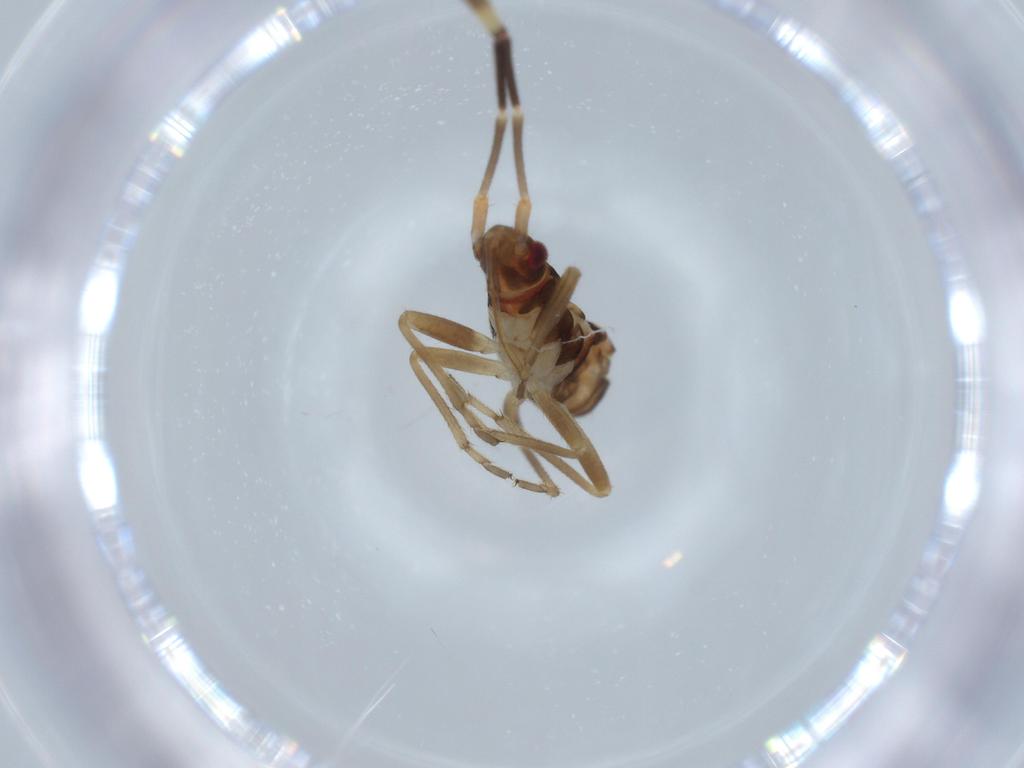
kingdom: Animalia
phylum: Arthropoda
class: Insecta
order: Hemiptera
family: Rhyparochromidae
